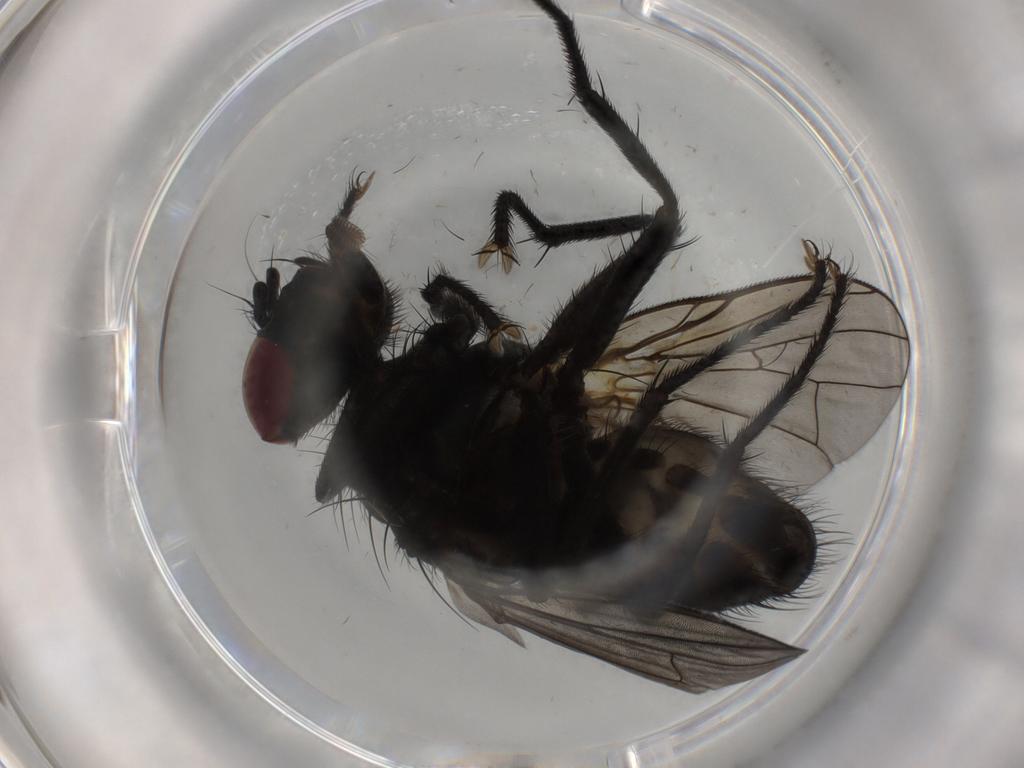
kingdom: Animalia
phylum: Arthropoda
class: Insecta
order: Diptera
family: Muscidae
